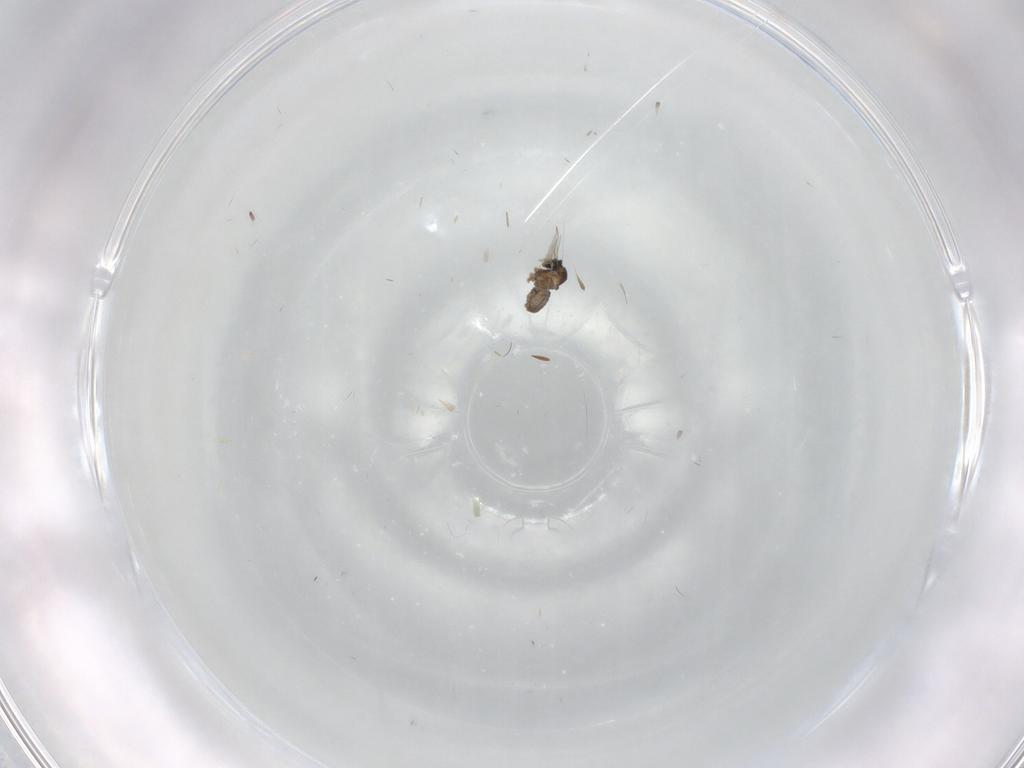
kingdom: Animalia
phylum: Arthropoda
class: Insecta
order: Diptera
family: Cecidomyiidae
